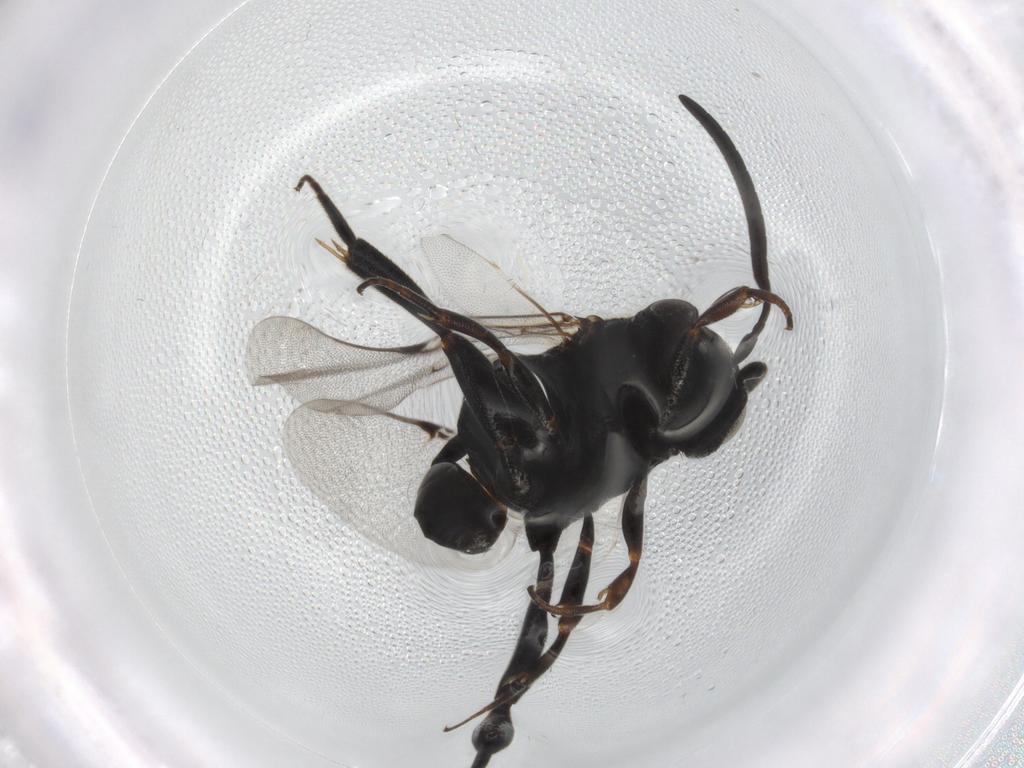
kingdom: Animalia
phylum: Arthropoda
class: Insecta
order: Hymenoptera
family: Evaniidae
